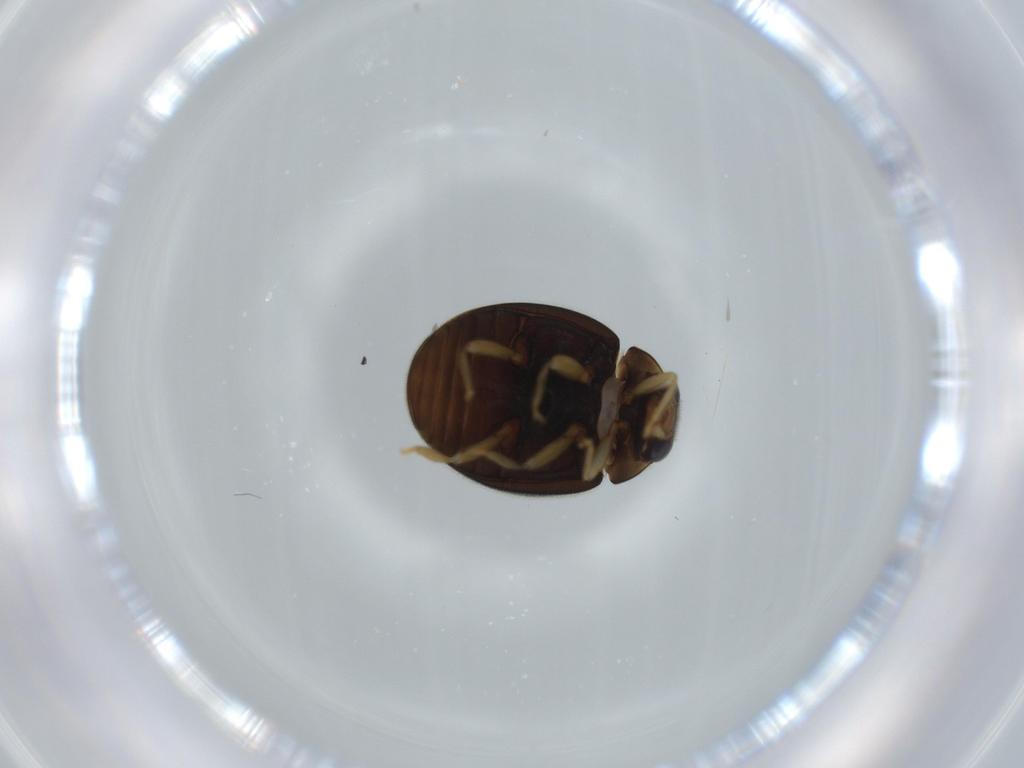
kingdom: Animalia
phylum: Arthropoda
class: Insecta
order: Coleoptera
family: Coccinellidae
